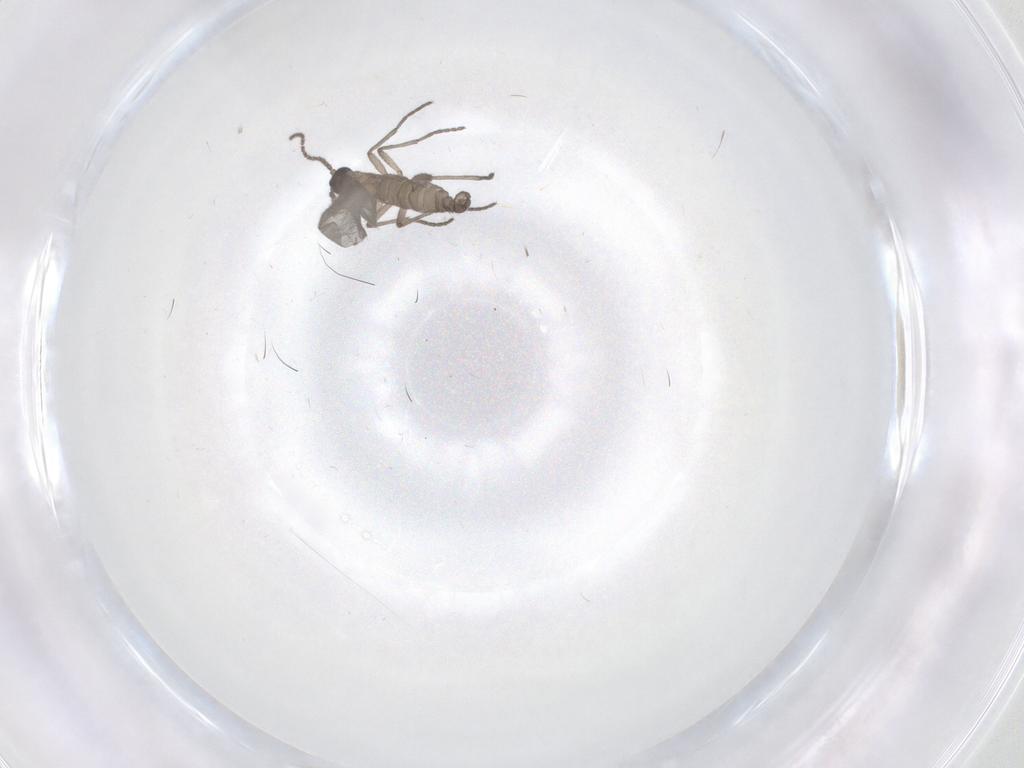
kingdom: Animalia
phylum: Arthropoda
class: Insecta
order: Diptera
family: Sciaridae
